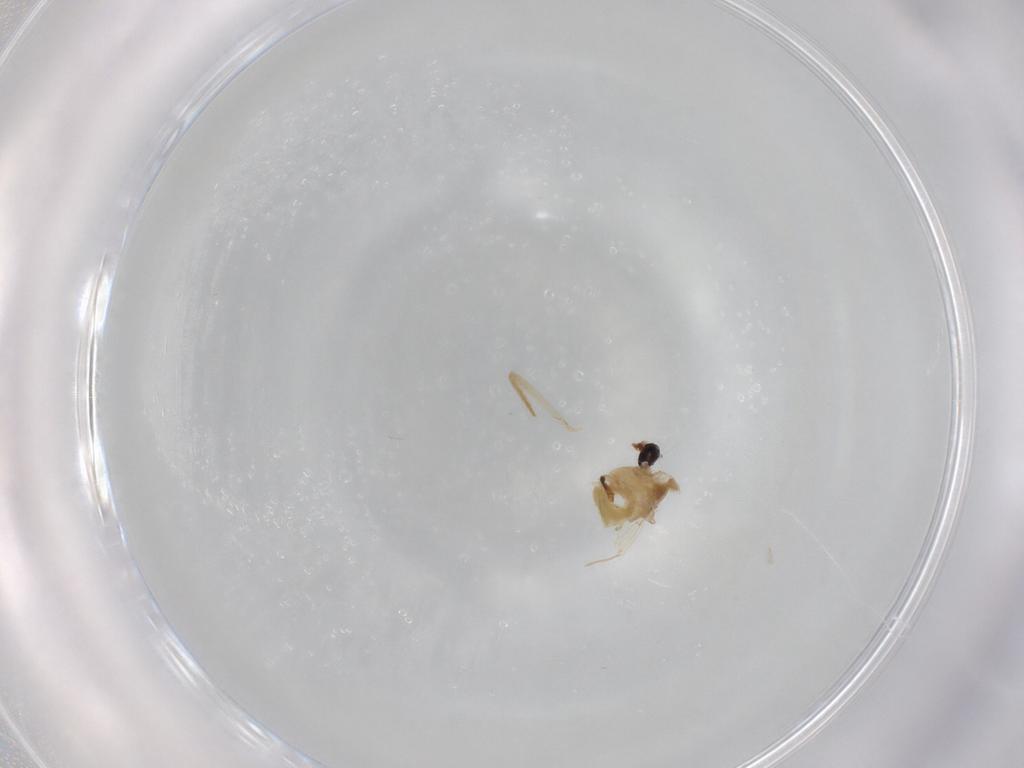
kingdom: Animalia
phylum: Arthropoda
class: Insecta
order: Diptera
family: Chironomidae
